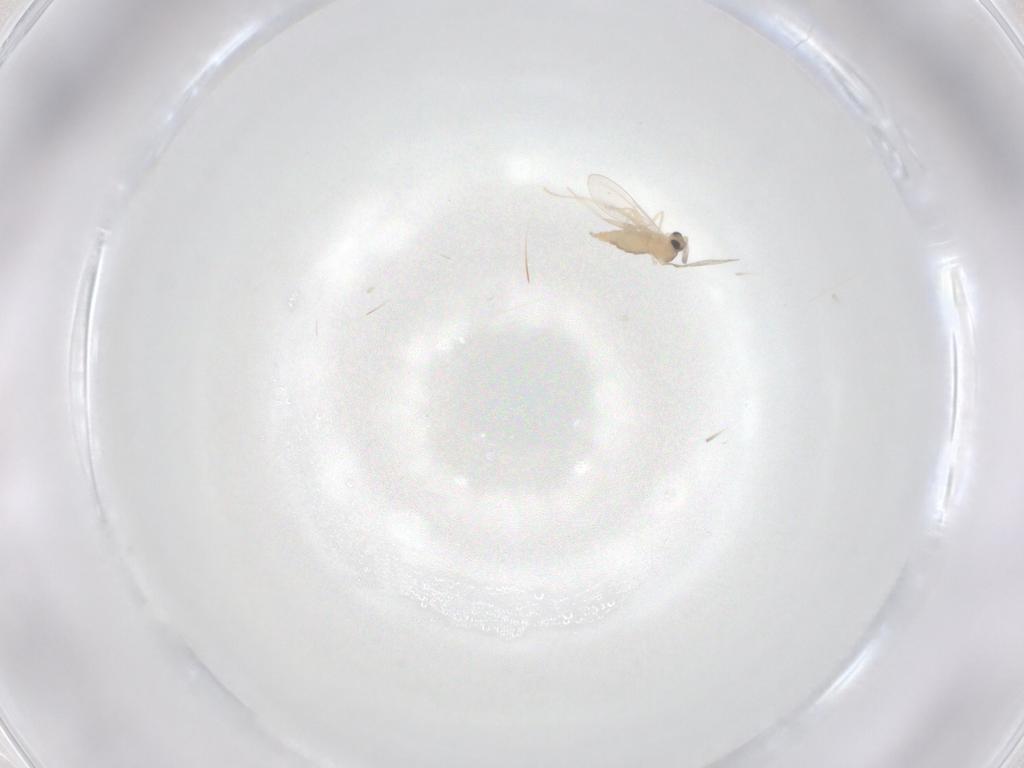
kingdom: Animalia
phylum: Arthropoda
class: Insecta
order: Diptera
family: Cecidomyiidae
